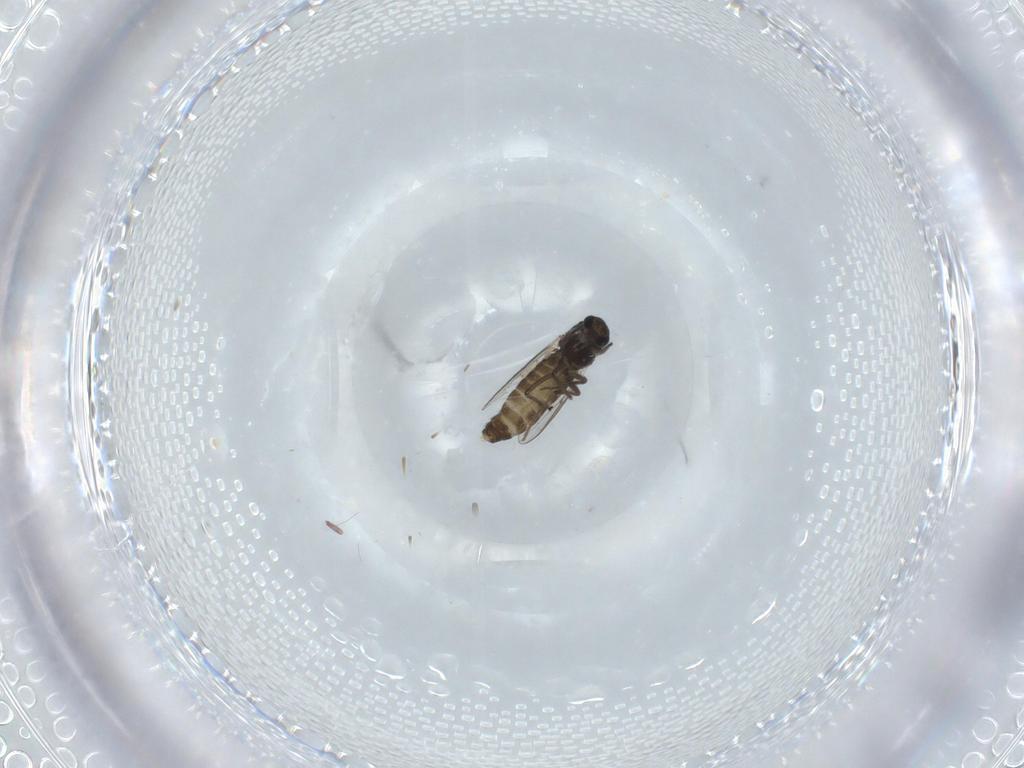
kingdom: Animalia
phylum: Arthropoda
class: Insecta
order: Diptera
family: Chironomidae
